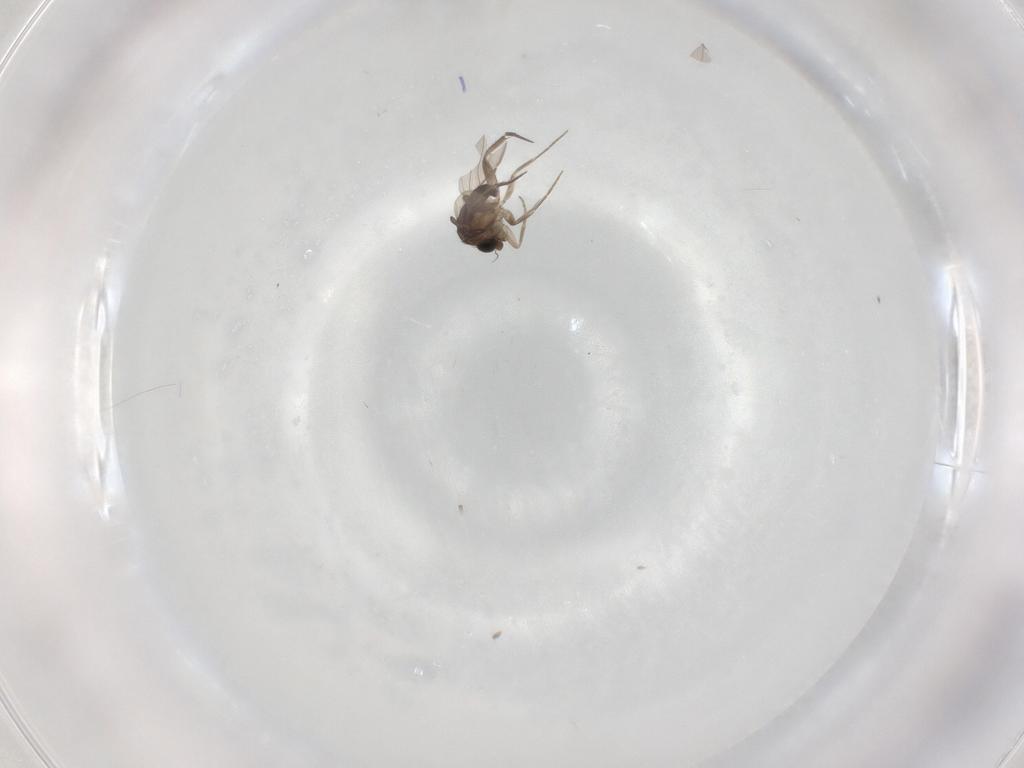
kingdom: Animalia
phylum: Arthropoda
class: Insecta
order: Diptera
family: Phoridae
